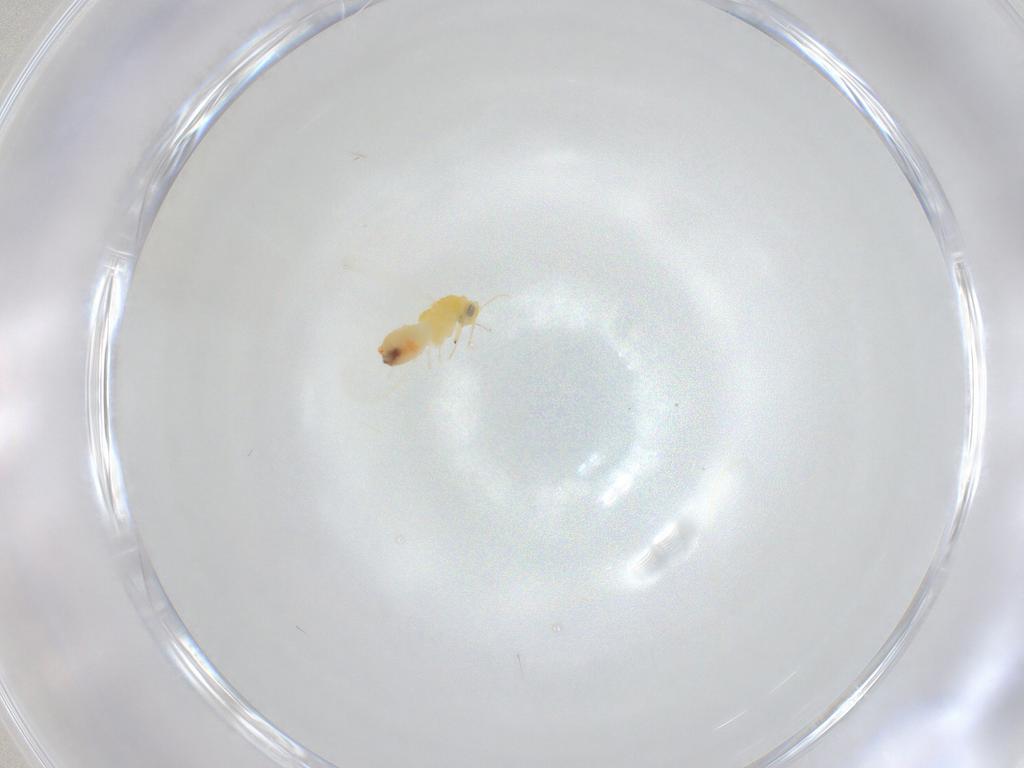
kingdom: Animalia
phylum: Arthropoda
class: Insecta
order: Hemiptera
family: Aleyrodidae
